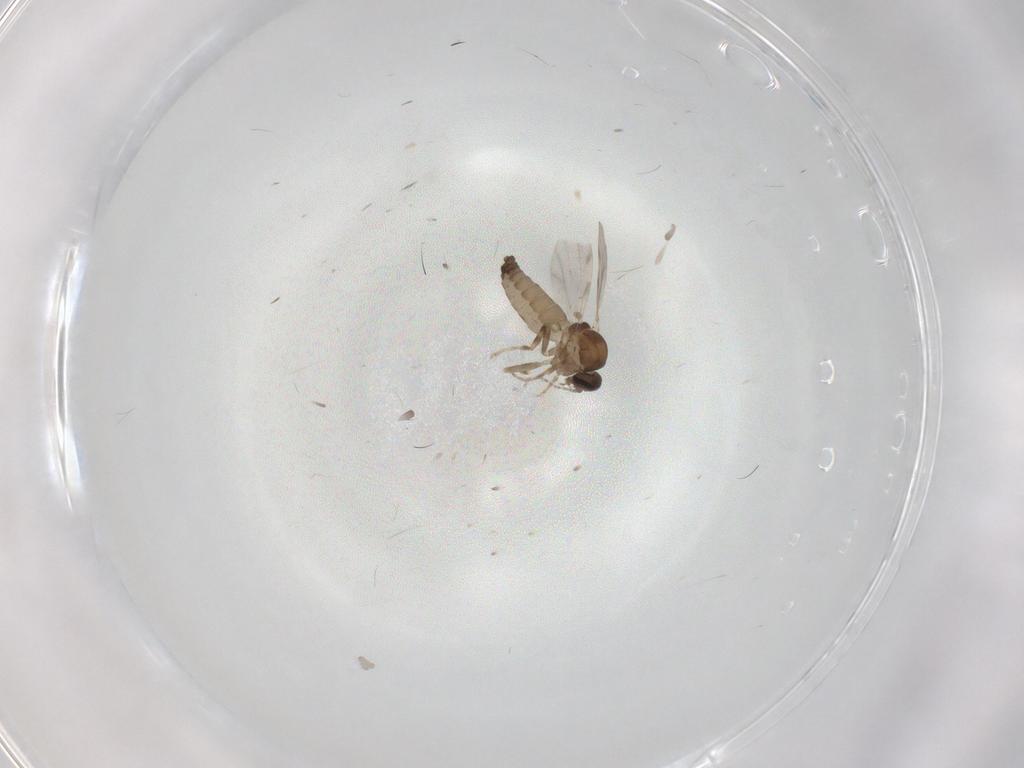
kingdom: Animalia
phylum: Arthropoda
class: Insecta
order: Diptera
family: Ceratopogonidae
